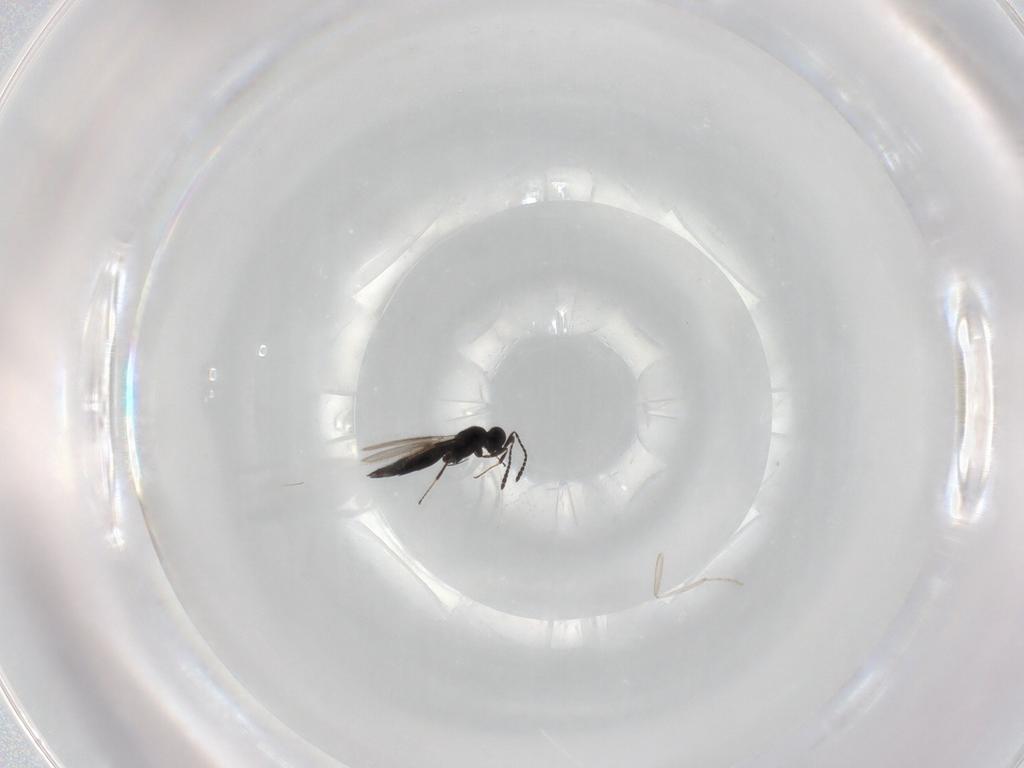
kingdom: Animalia
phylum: Arthropoda
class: Insecta
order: Hymenoptera
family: Scelionidae
